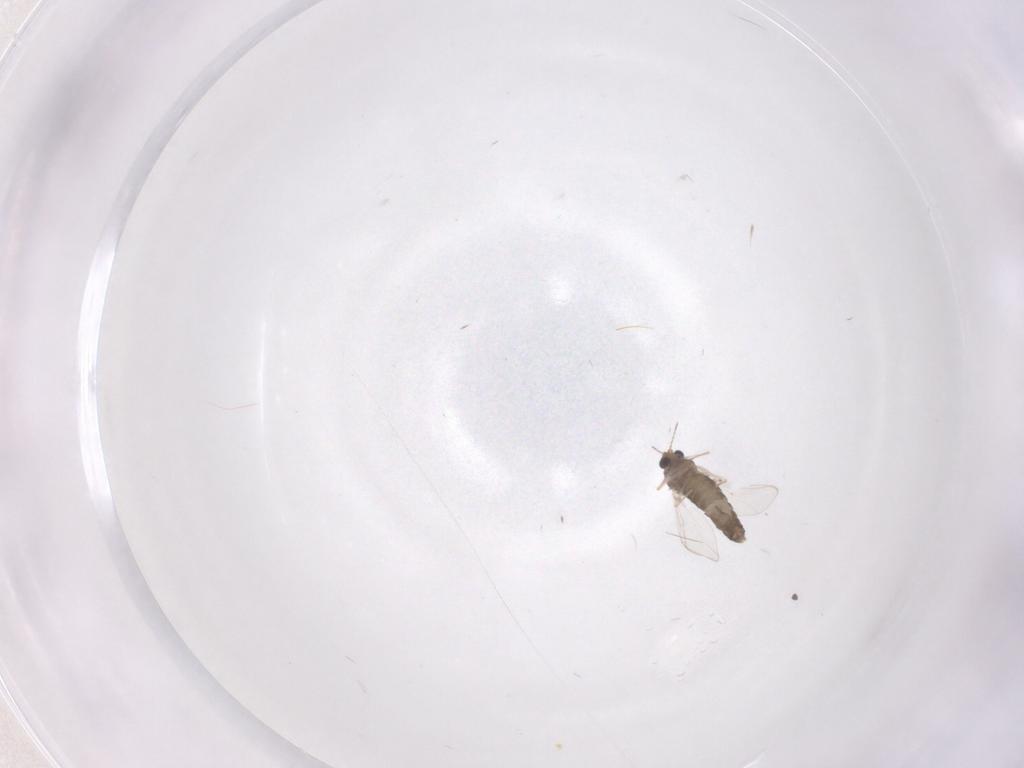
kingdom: Animalia
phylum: Arthropoda
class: Insecta
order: Diptera
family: Chironomidae
